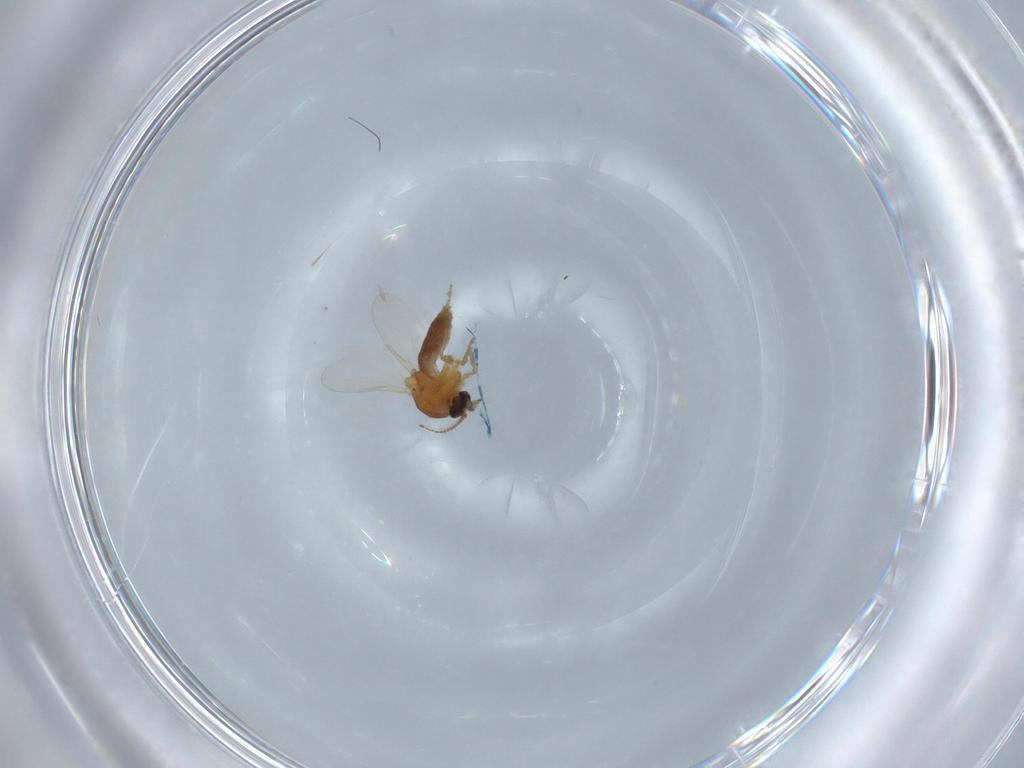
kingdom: Animalia
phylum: Arthropoda
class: Insecta
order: Diptera
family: Ceratopogonidae
